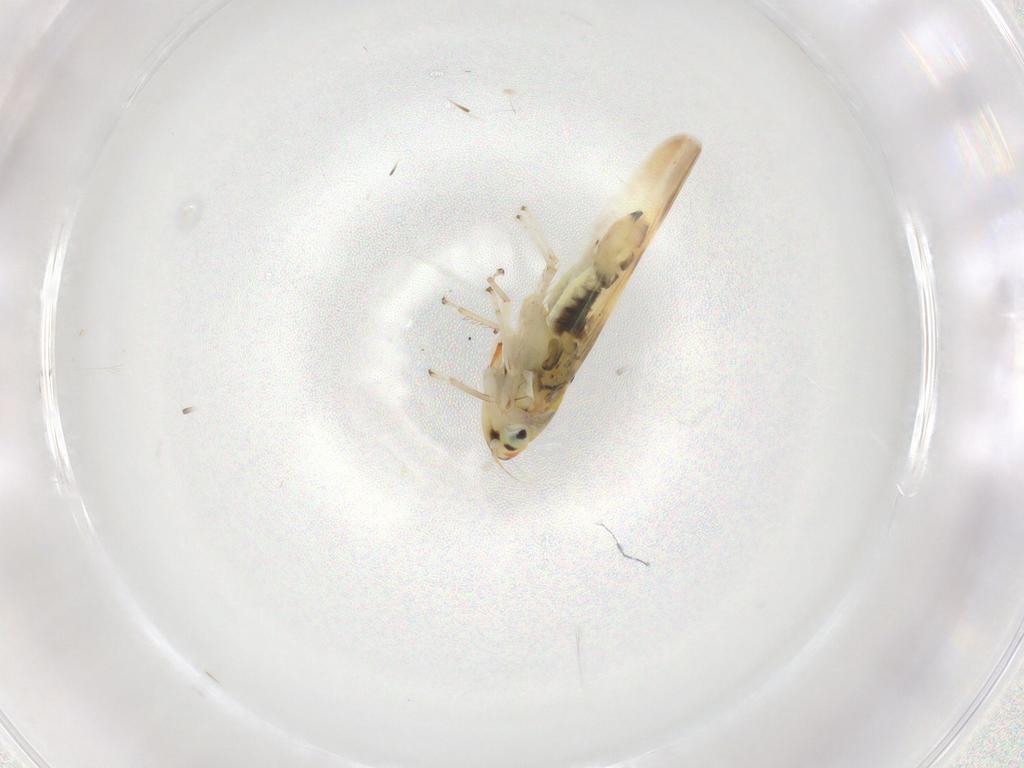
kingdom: Animalia
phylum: Arthropoda
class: Insecta
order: Hemiptera
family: Cicadellidae
